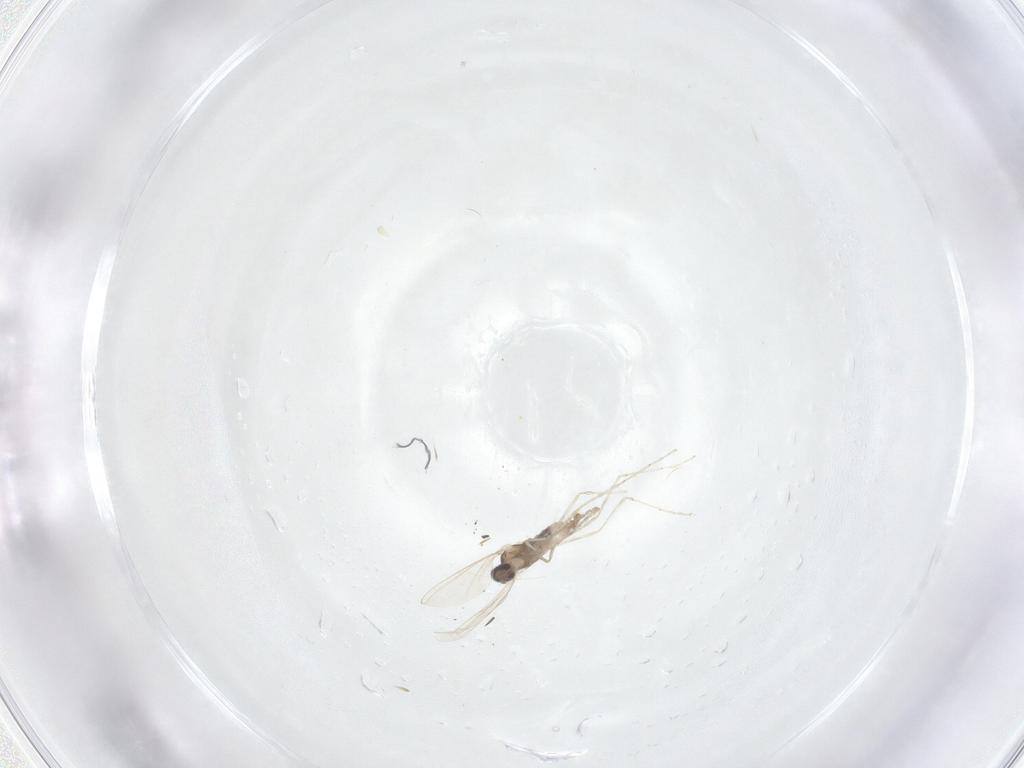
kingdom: Animalia
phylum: Arthropoda
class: Insecta
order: Diptera
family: Cecidomyiidae
